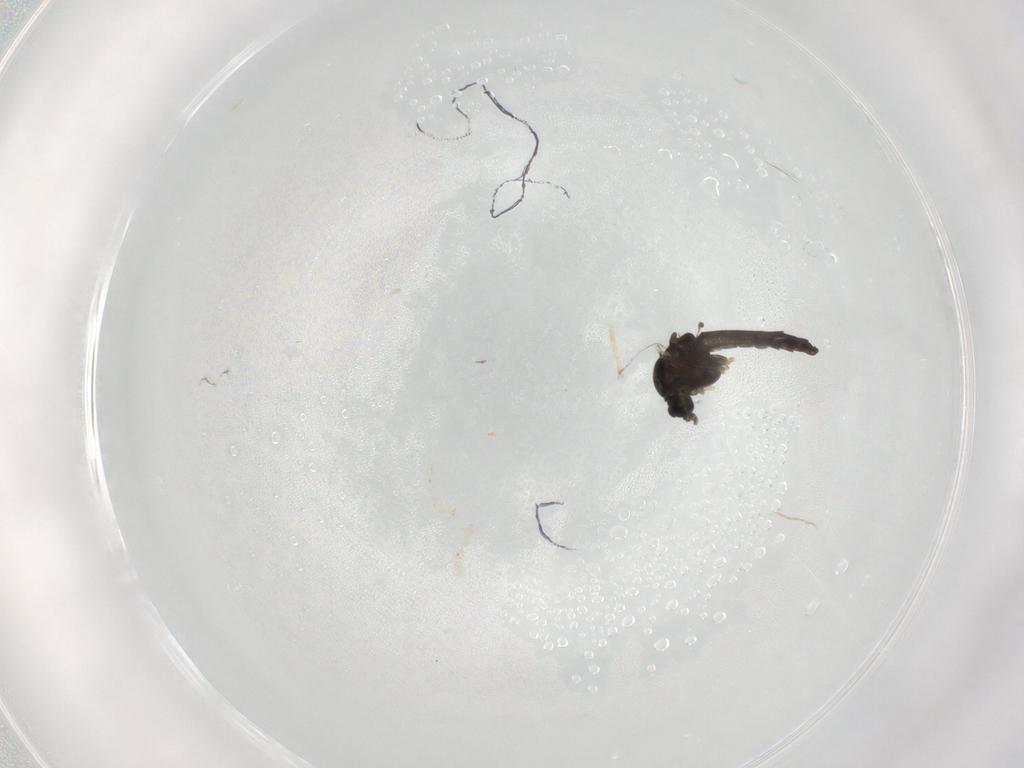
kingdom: Animalia
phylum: Arthropoda
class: Insecta
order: Diptera
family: Chironomidae
